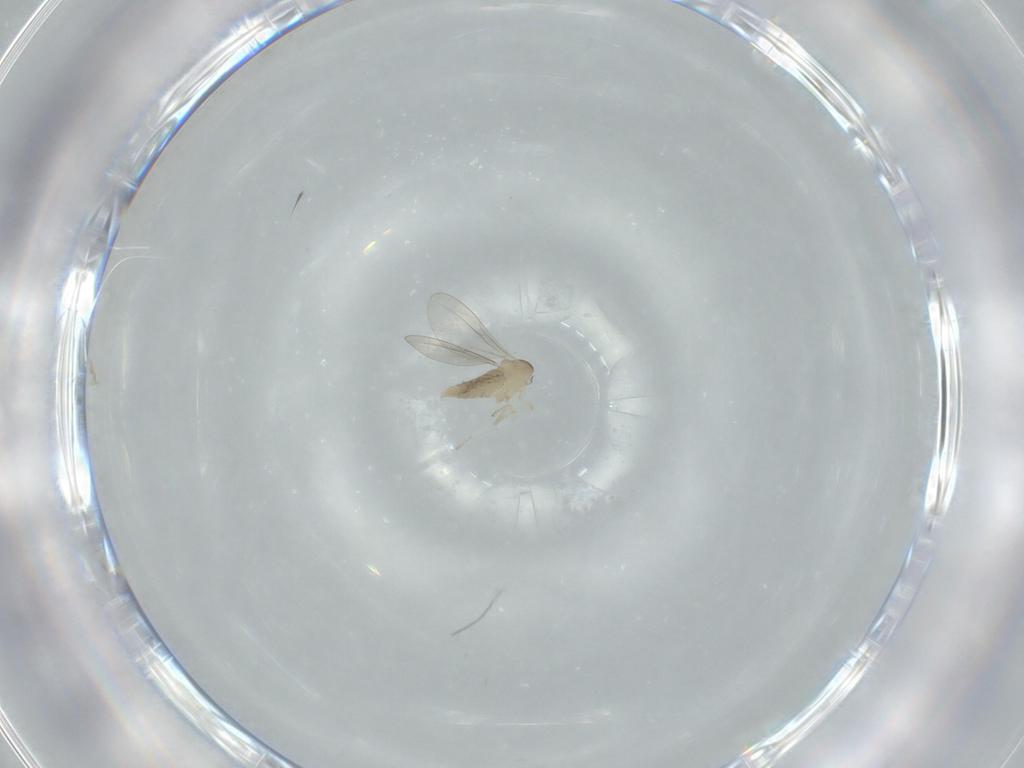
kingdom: Animalia
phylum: Arthropoda
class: Insecta
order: Diptera
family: Cecidomyiidae
